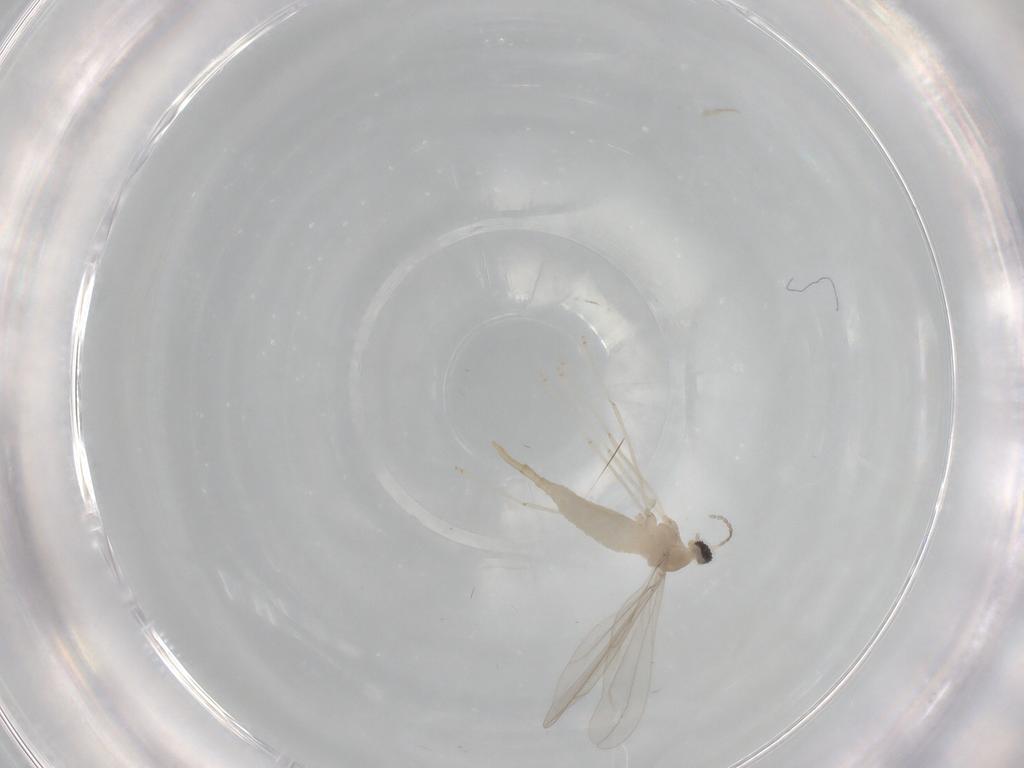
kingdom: Animalia
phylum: Arthropoda
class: Insecta
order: Diptera
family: Cecidomyiidae
